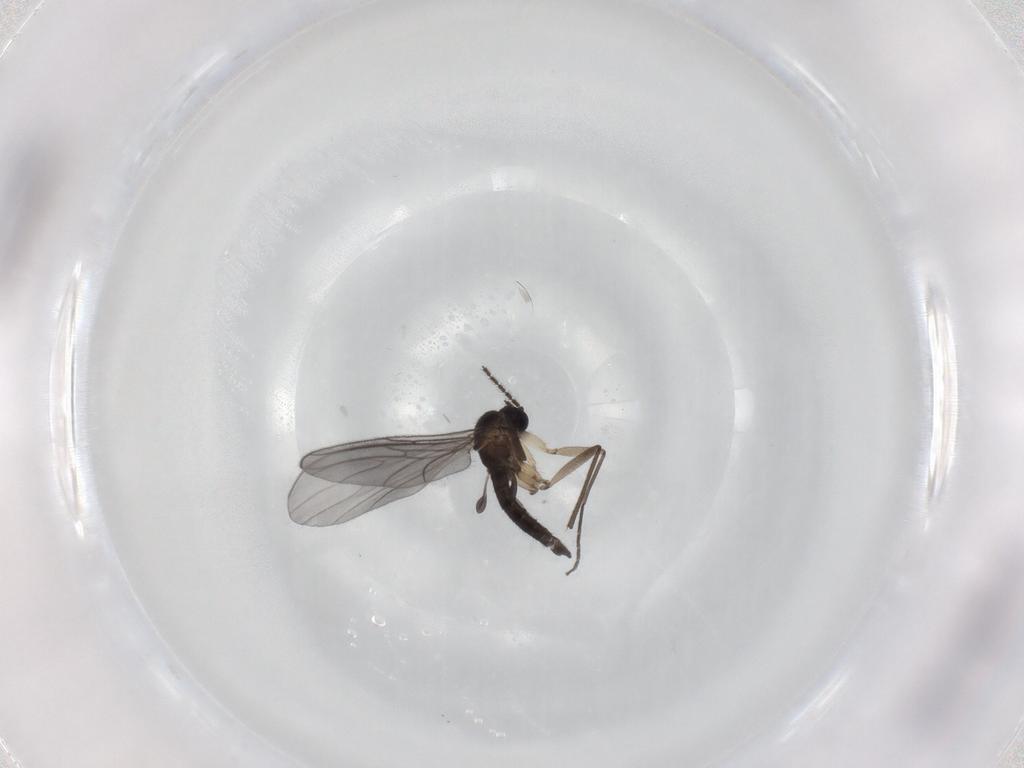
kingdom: Animalia
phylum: Arthropoda
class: Insecta
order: Diptera
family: Sciaridae
